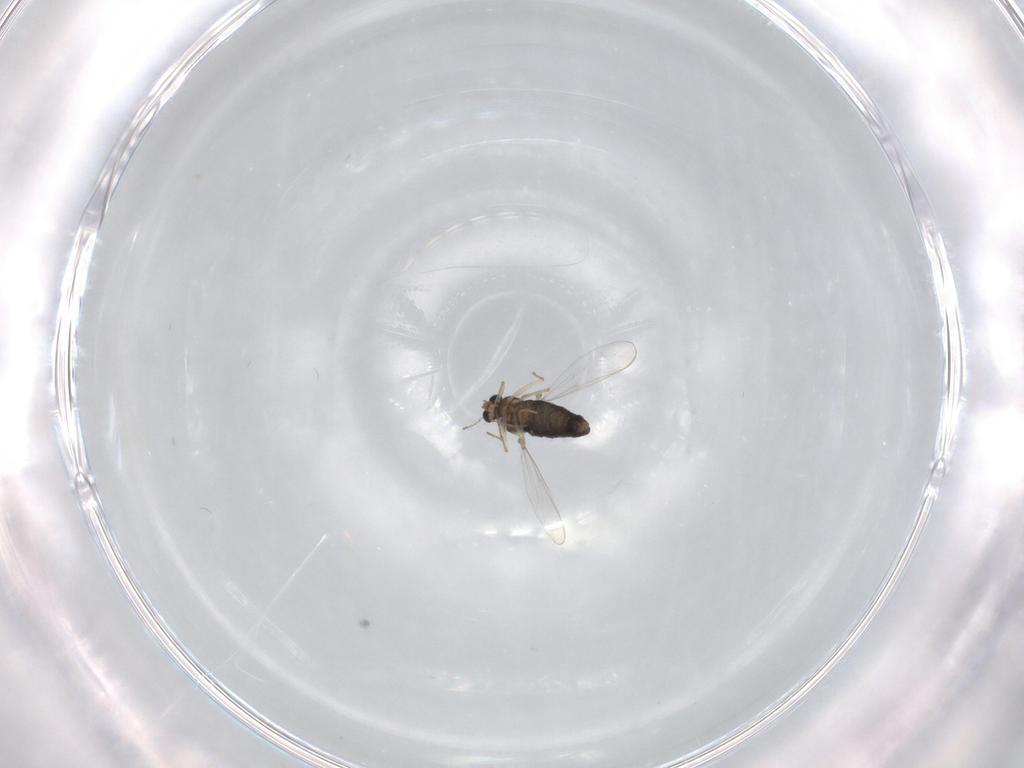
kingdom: Animalia
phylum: Arthropoda
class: Insecta
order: Diptera
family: Chironomidae
